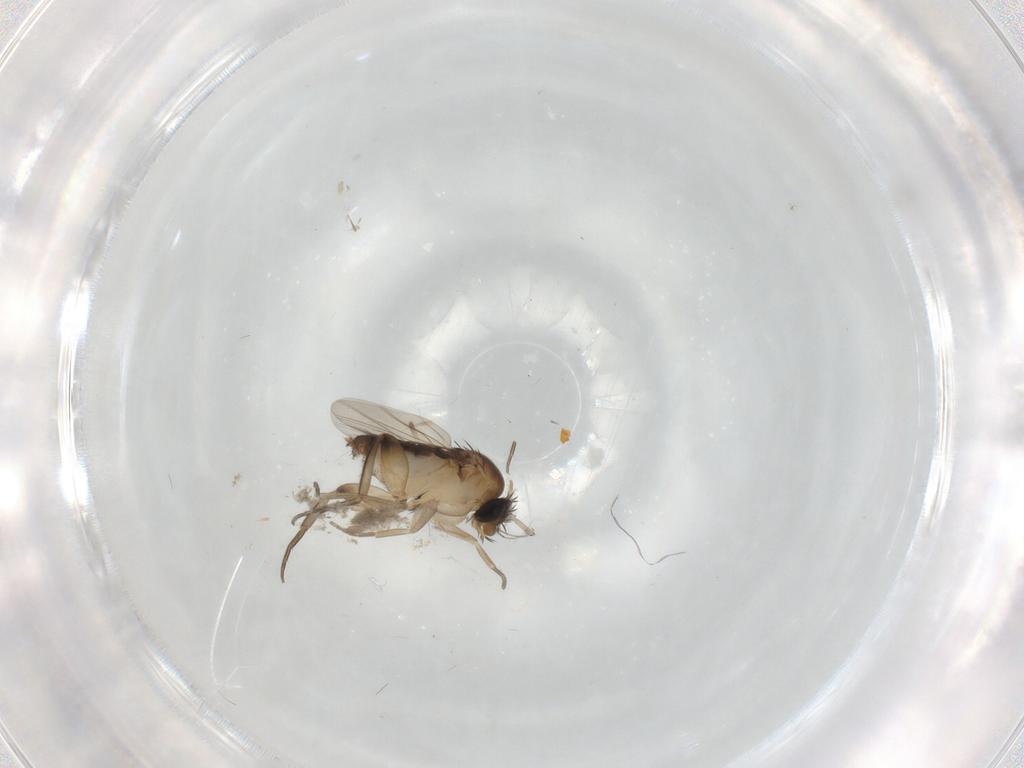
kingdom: Animalia
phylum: Arthropoda
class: Insecta
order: Diptera
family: Phoridae
